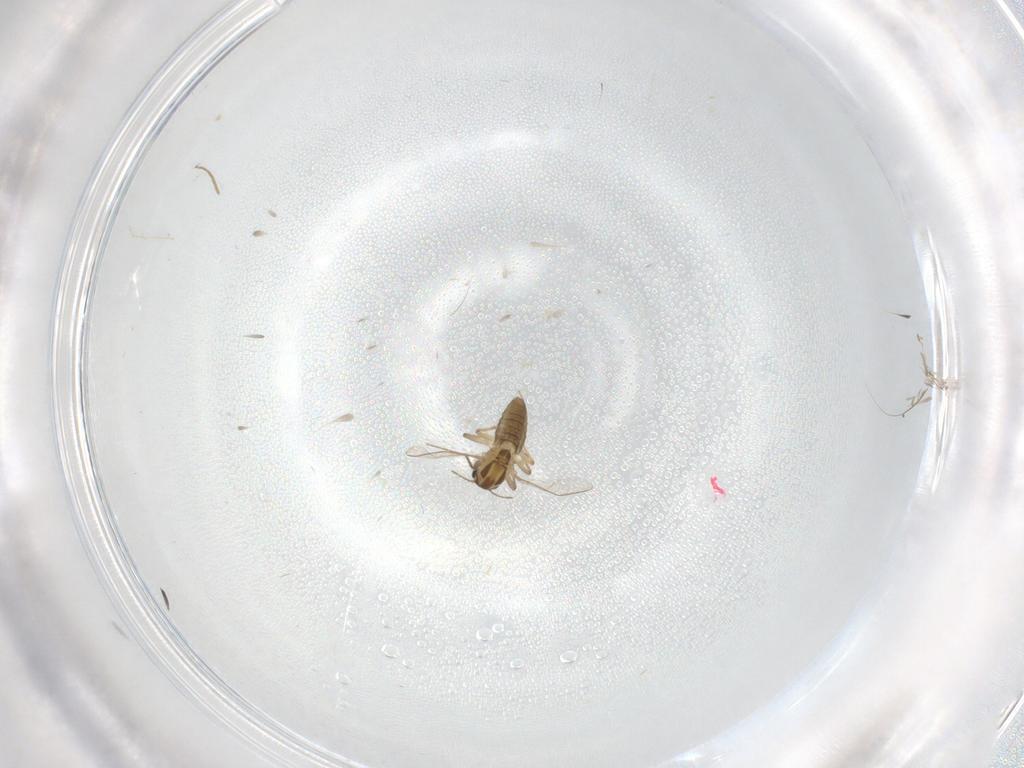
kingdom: Animalia
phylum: Arthropoda
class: Insecta
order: Diptera
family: Chironomidae
